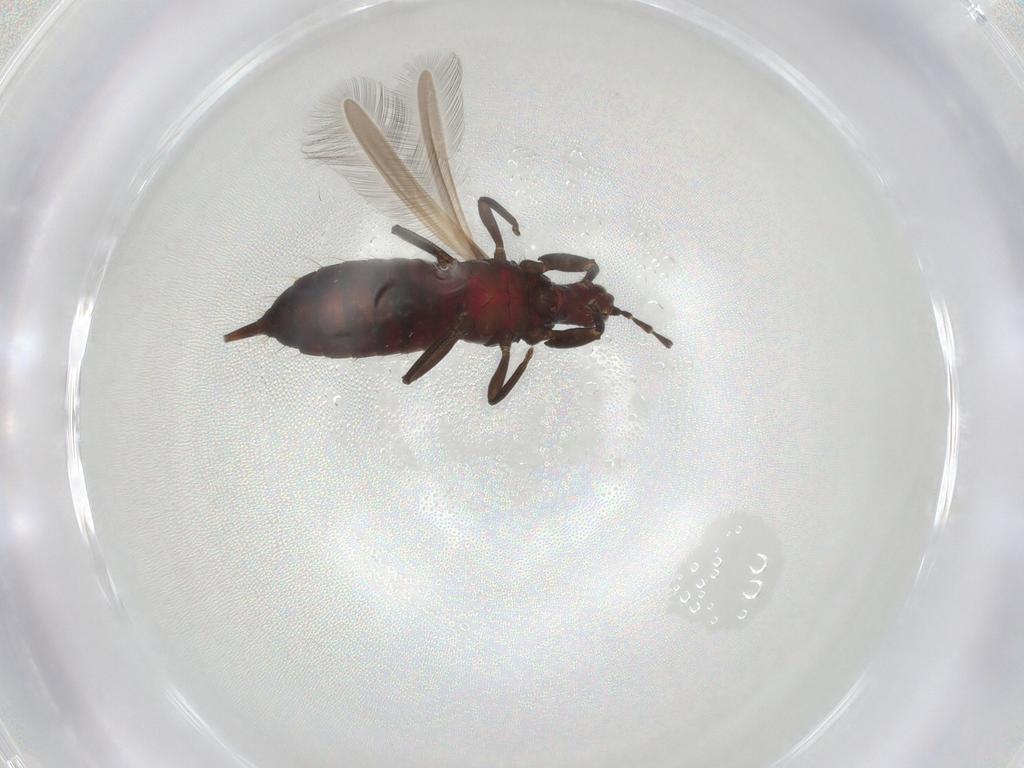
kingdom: Animalia
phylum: Arthropoda
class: Insecta
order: Thysanoptera
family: Phlaeothripidae
